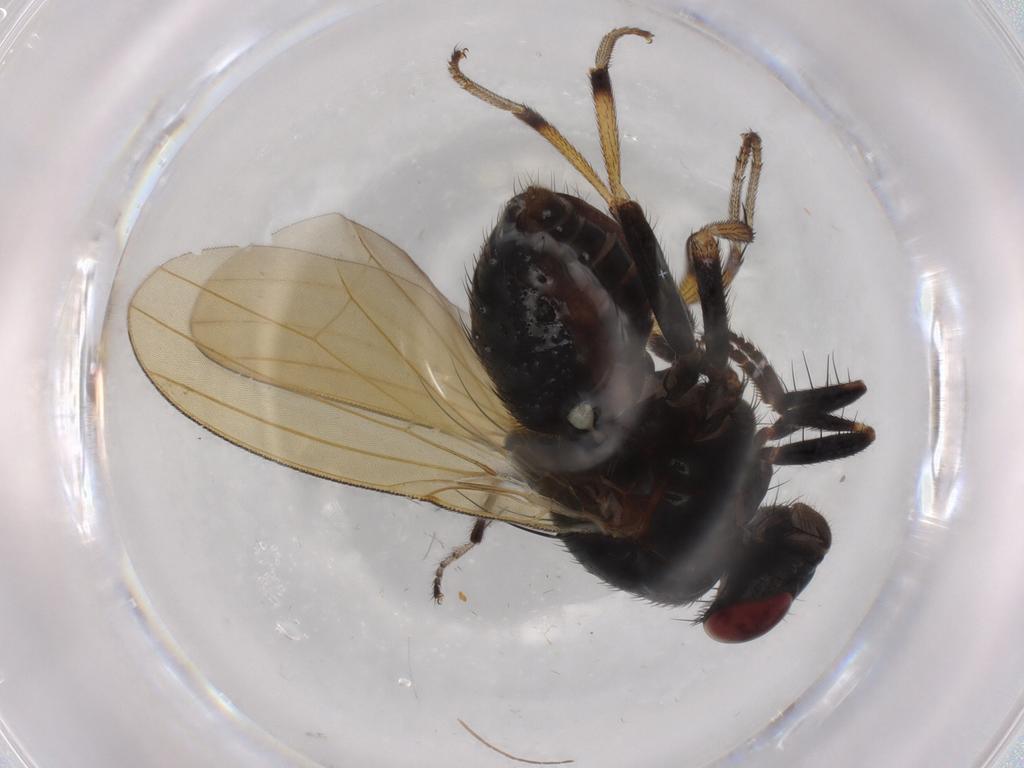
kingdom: Animalia
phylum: Arthropoda
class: Insecta
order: Diptera
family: Chironomidae
